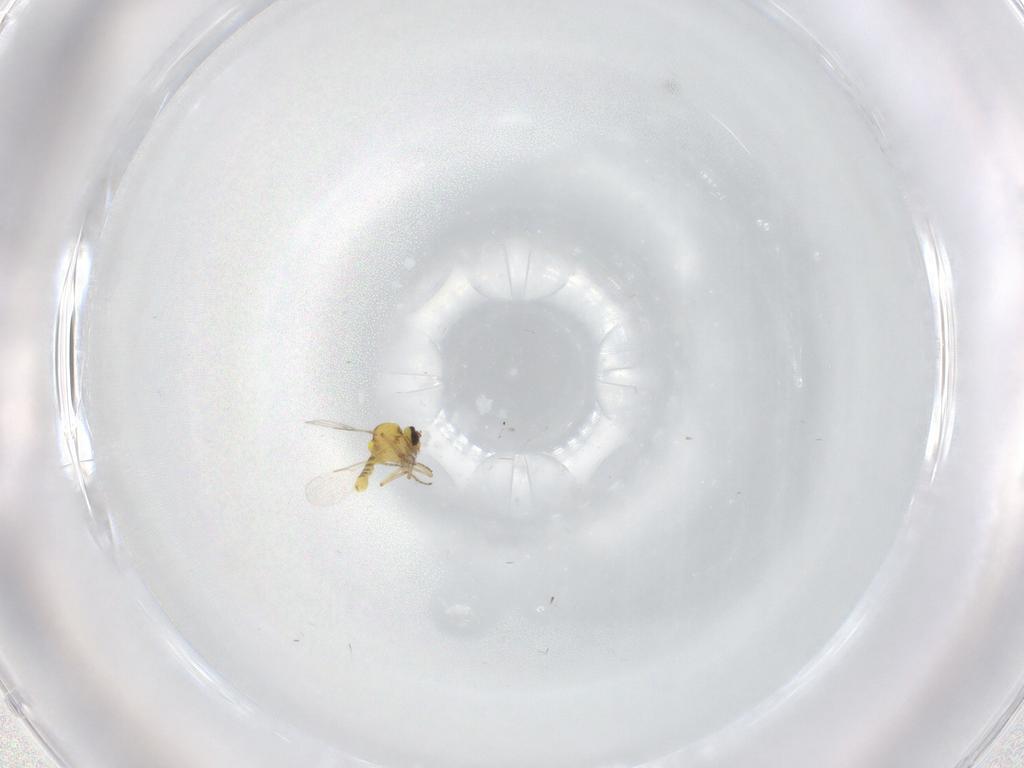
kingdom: Animalia
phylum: Arthropoda
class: Insecta
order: Diptera
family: Ceratopogonidae
